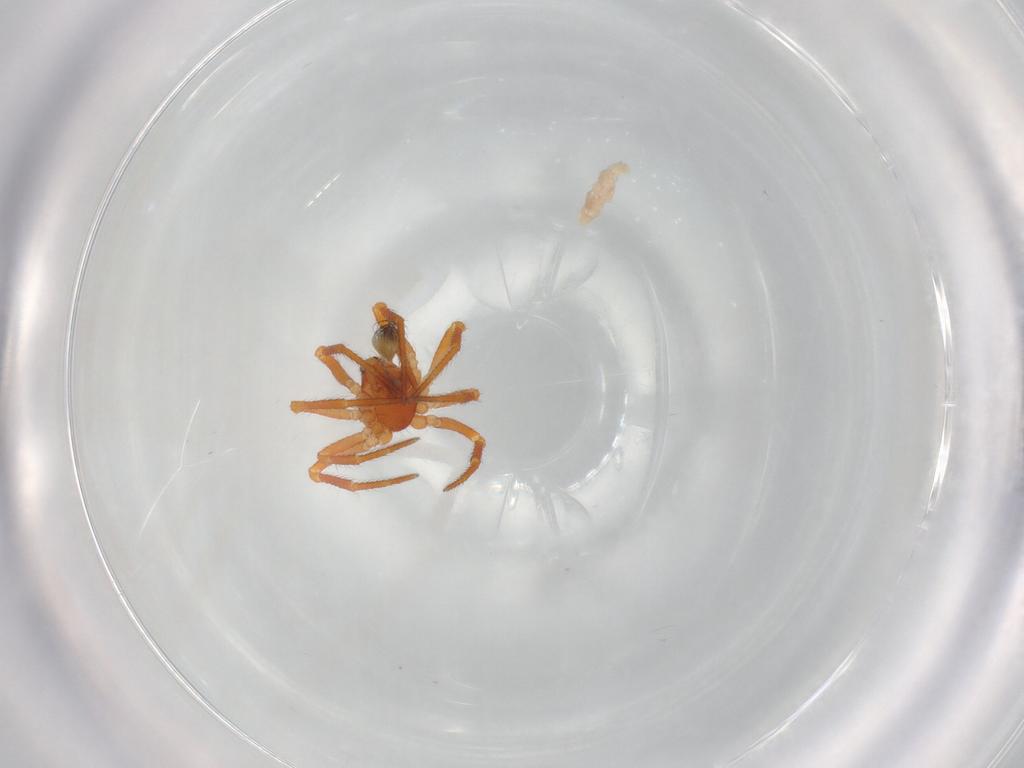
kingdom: Animalia
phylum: Arthropoda
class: Arachnida
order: Araneae
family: Theridiidae
